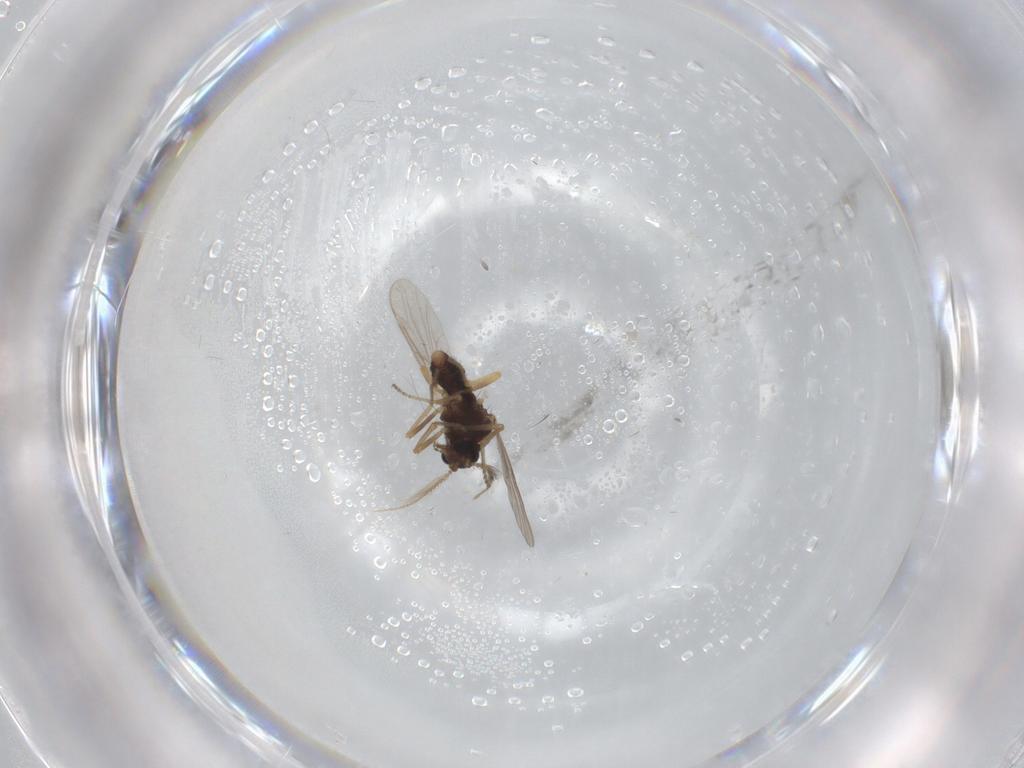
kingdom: Animalia
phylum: Arthropoda
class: Insecta
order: Diptera
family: Ceratopogonidae
